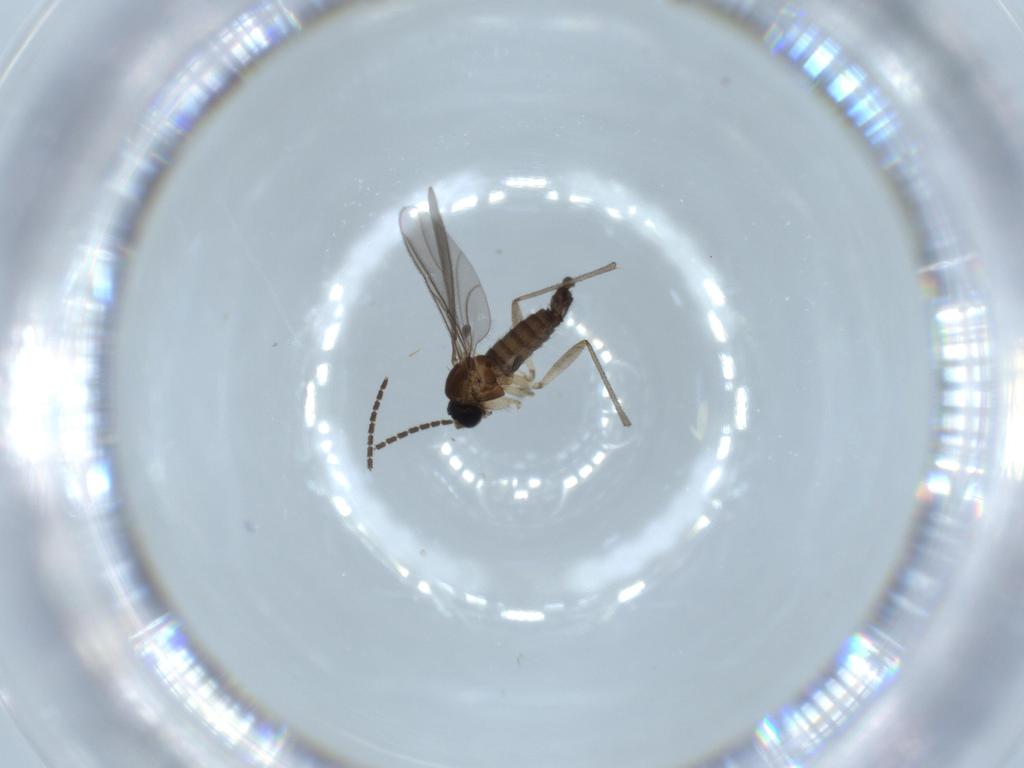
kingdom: Animalia
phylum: Arthropoda
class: Insecta
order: Diptera
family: Sciaridae
